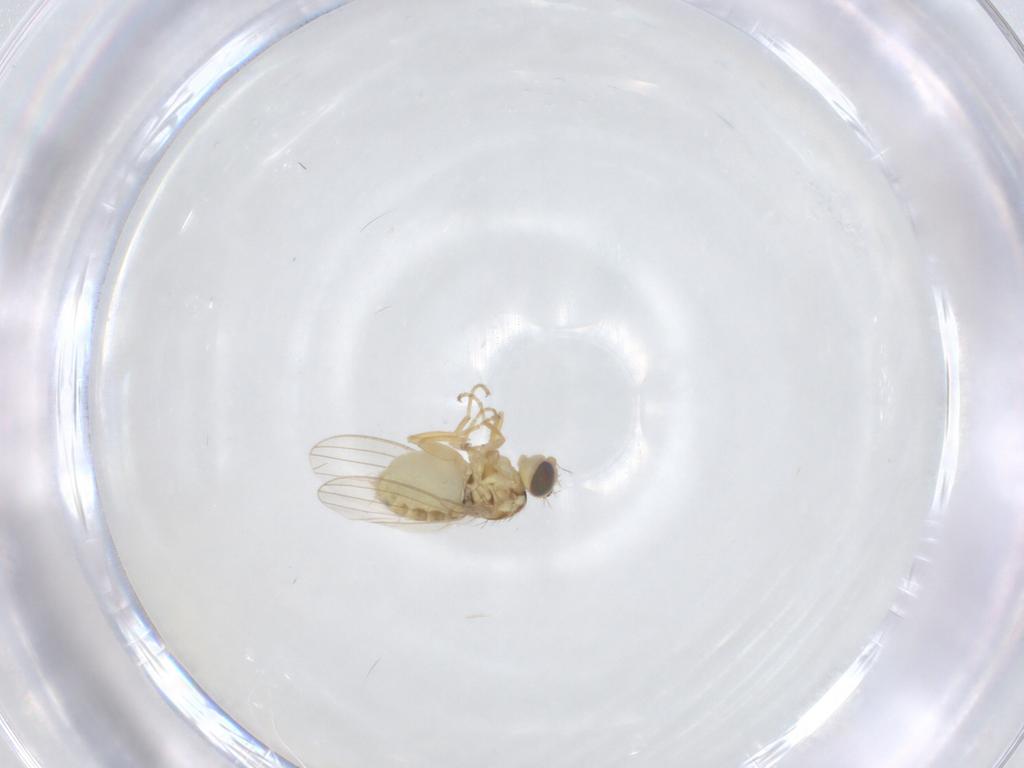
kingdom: Animalia
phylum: Arthropoda
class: Insecta
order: Diptera
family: Drosophilidae
